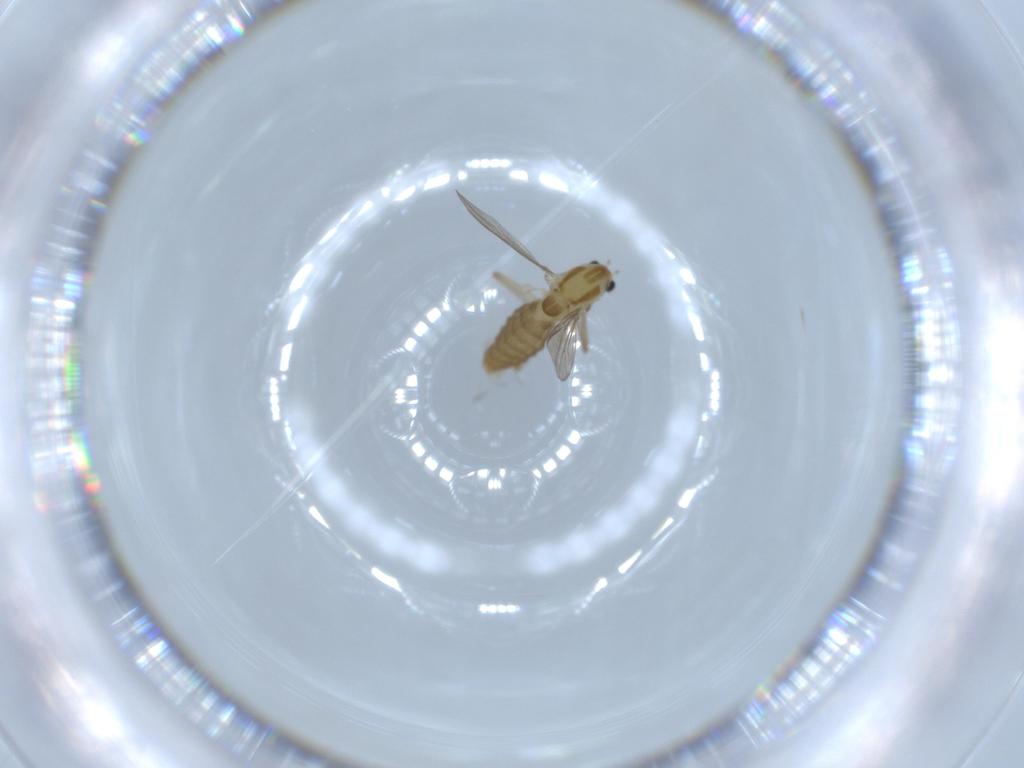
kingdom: Animalia
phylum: Arthropoda
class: Insecta
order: Diptera
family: Chironomidae
